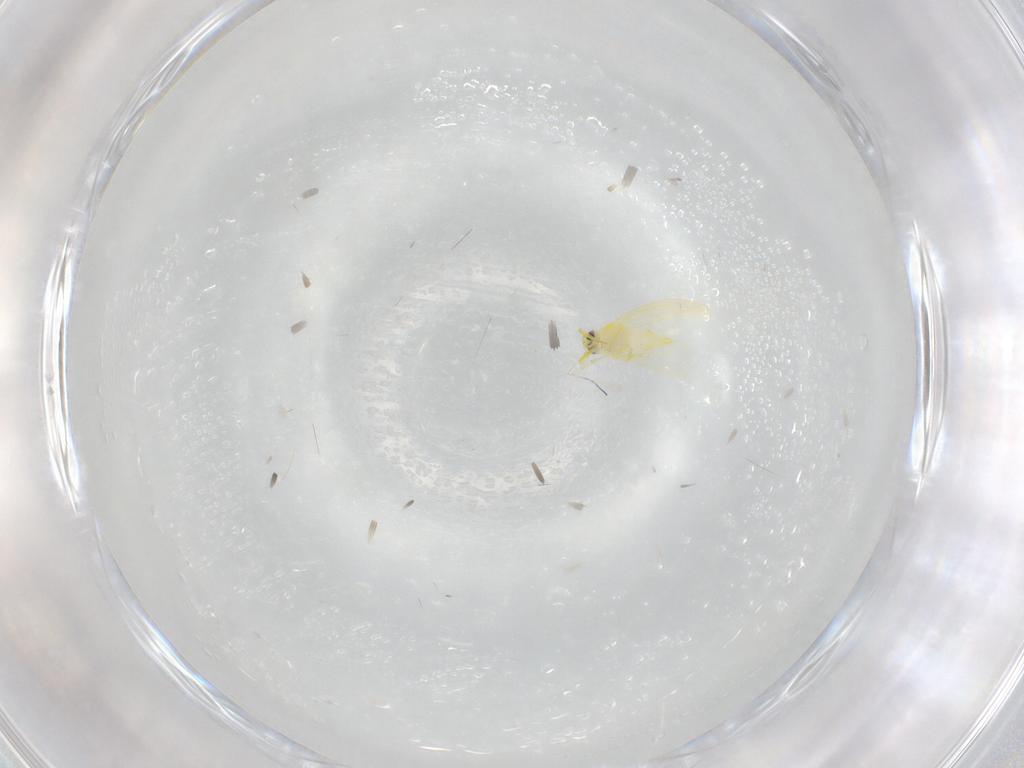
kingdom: Animalia
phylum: Arthropoda
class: Insecta
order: Hemiptera
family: Aleyrodidae
